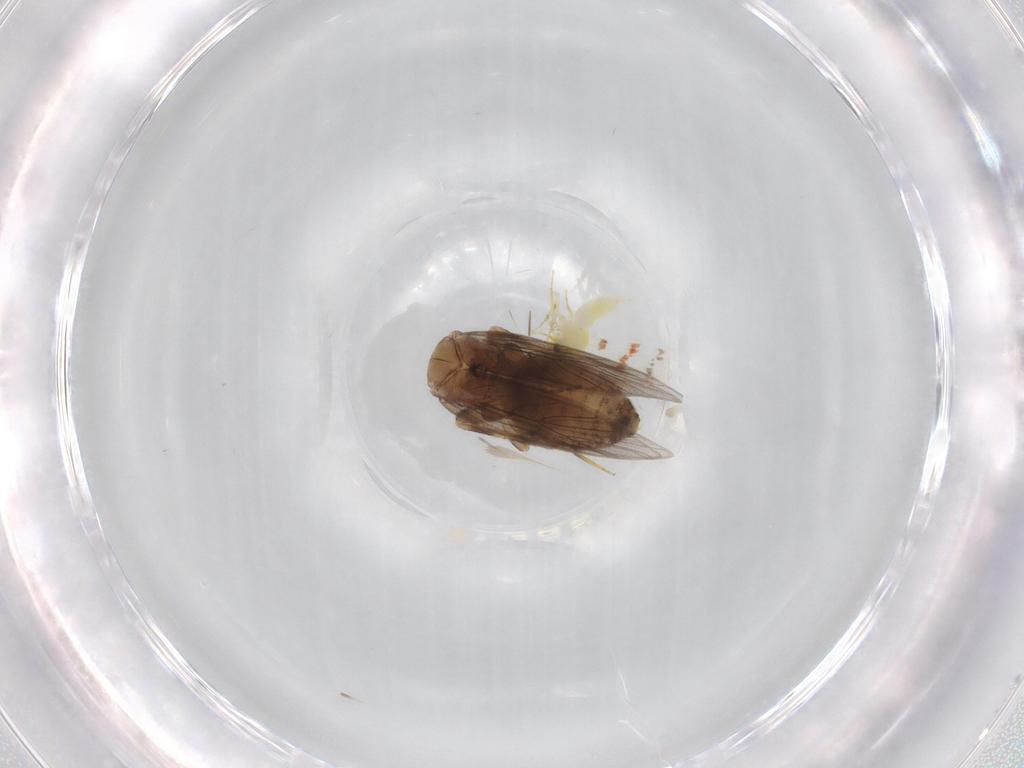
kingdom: Animalia
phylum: Arthropoda
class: Insecta
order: Psocodea
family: Lepidopsocidae
